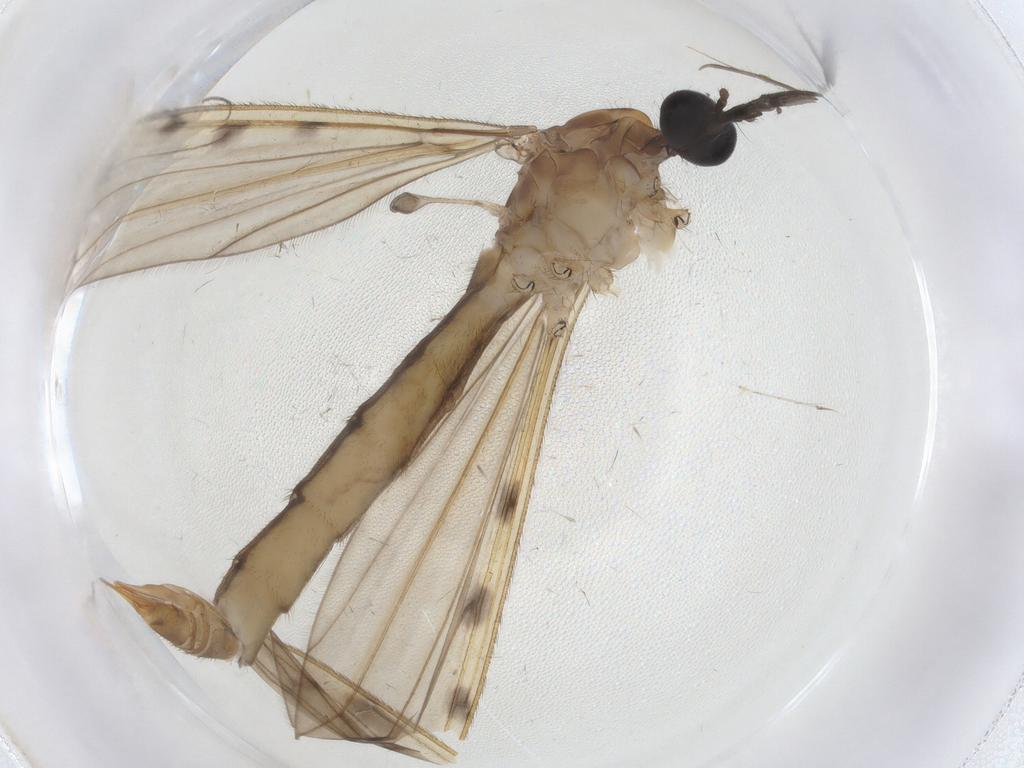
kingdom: Animalia
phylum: Arthropoda
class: Insecta
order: Diptera
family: Limoniidae
